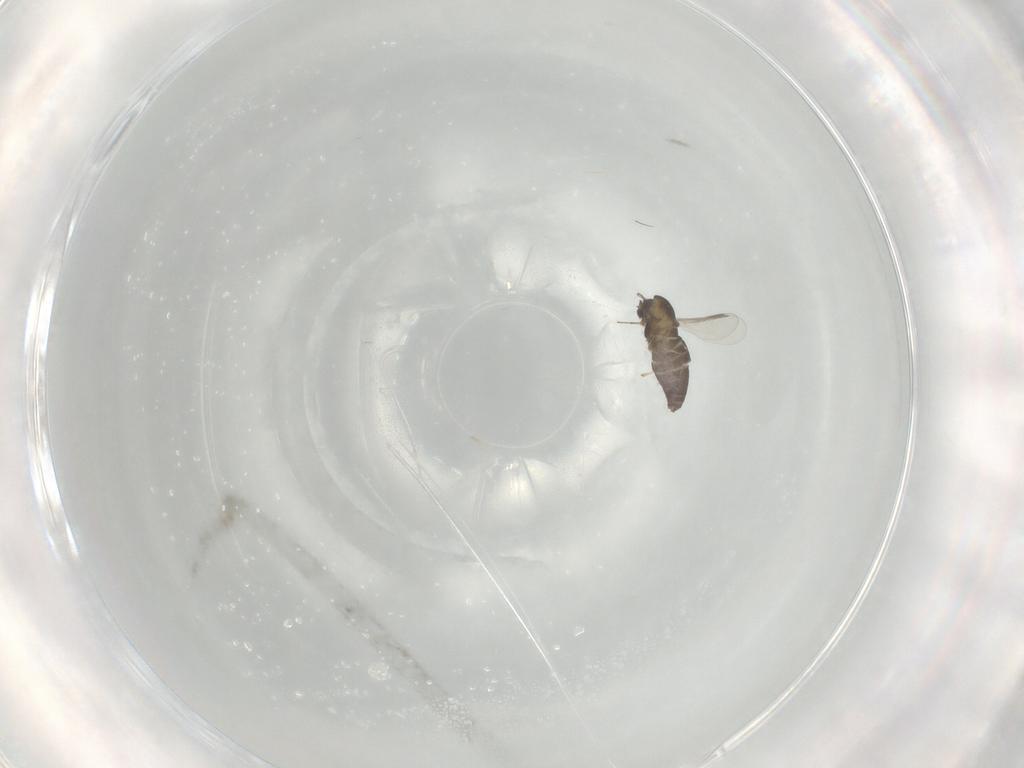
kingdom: Animalia
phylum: Arthropoda
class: Insecta
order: Diptera
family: Chironomidae
